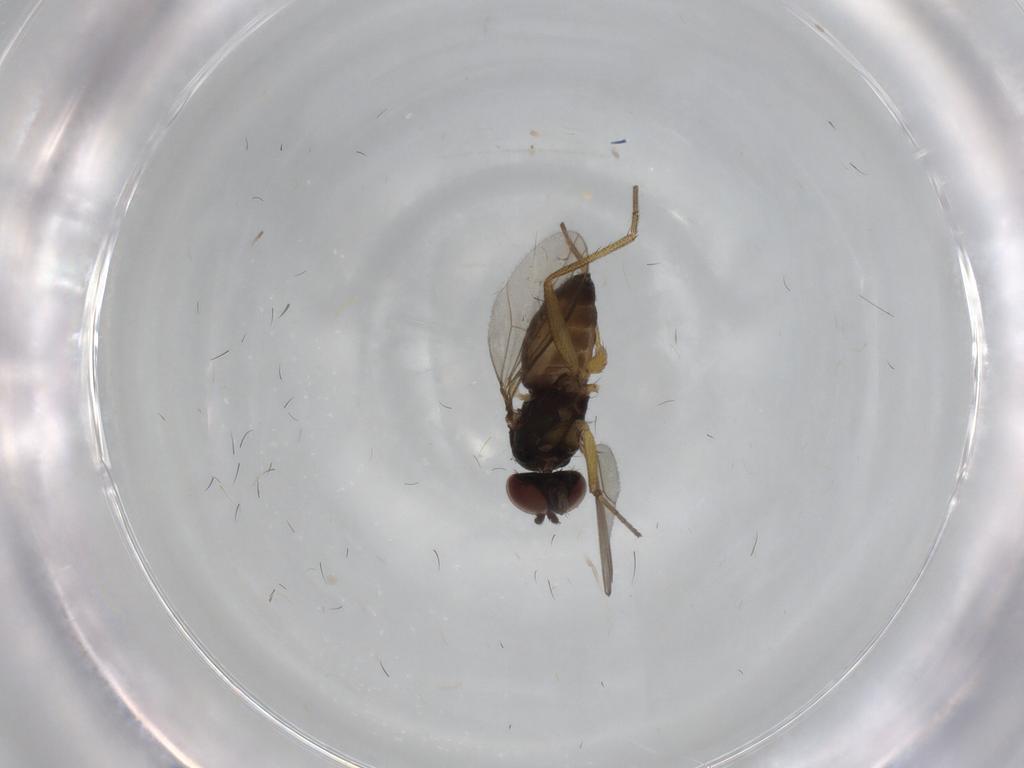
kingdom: Animalia
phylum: Arthropoda
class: Insecta
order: Diptera
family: Dolichopodidae
